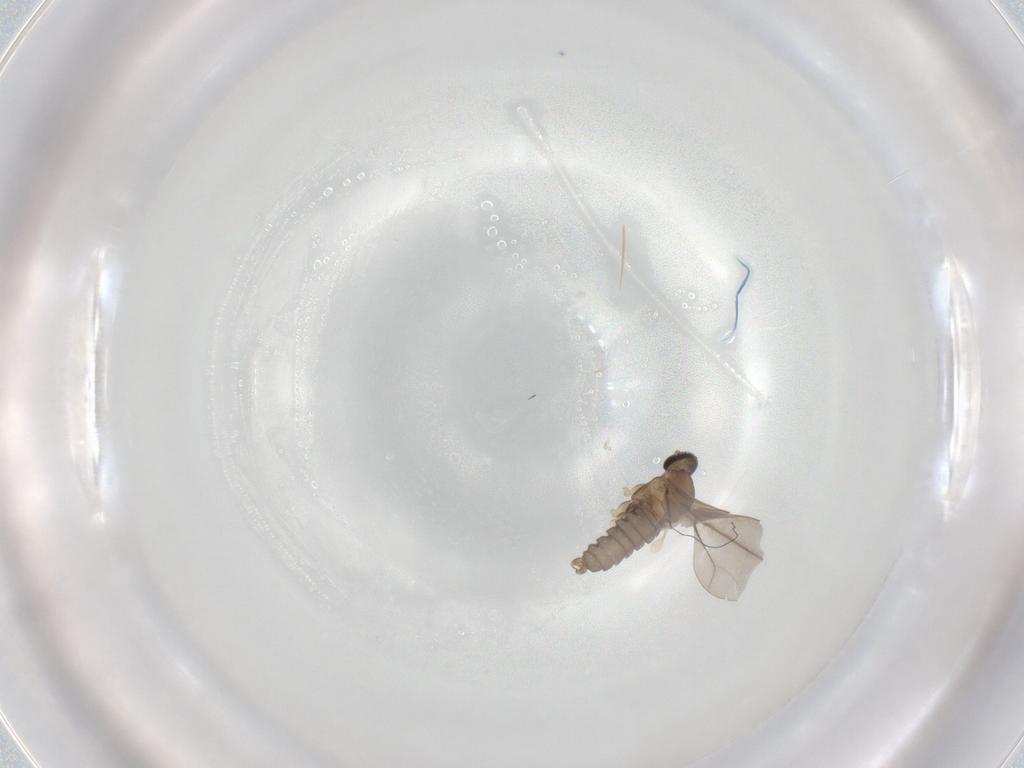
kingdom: Animalia
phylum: Arthropoda
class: Insecta
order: Diptera
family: Cecidomyiidae
